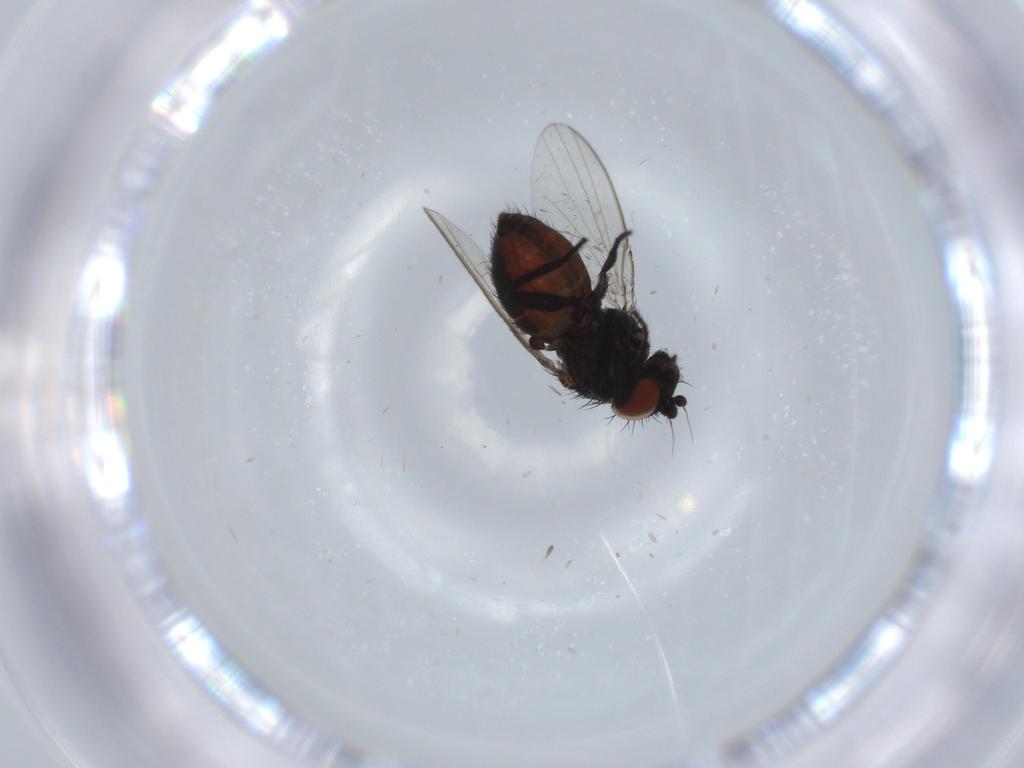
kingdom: Animalia
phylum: Arthropoda
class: Insecta
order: Diptera
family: Milichiidae
